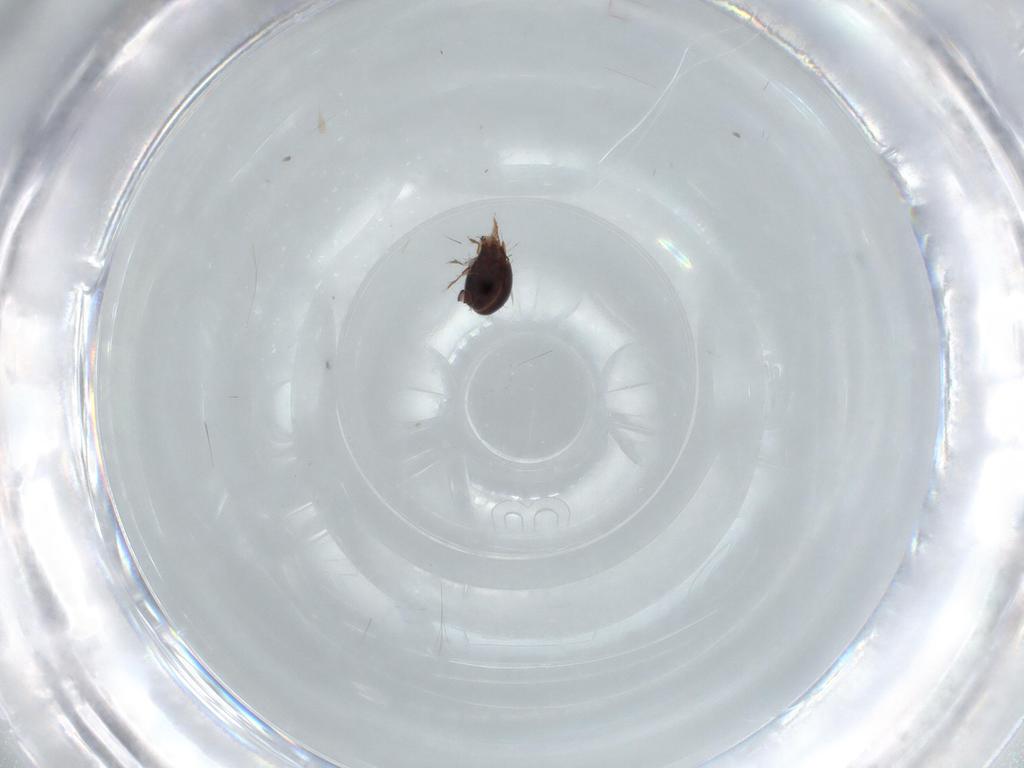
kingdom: Animalia
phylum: Arthropoda
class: Arachnida
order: Sarcoptiformes
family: Ceratozetidae
